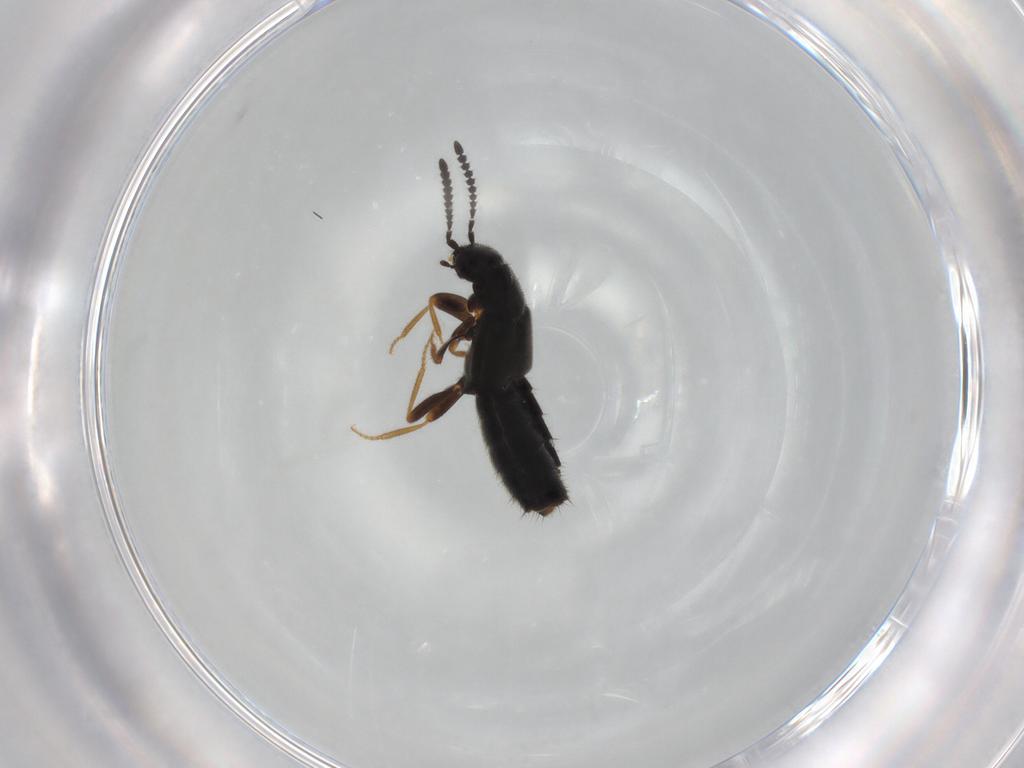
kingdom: Animalia
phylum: Arthropoda
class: Insecta
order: Coleoptera
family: Staphylinidae
